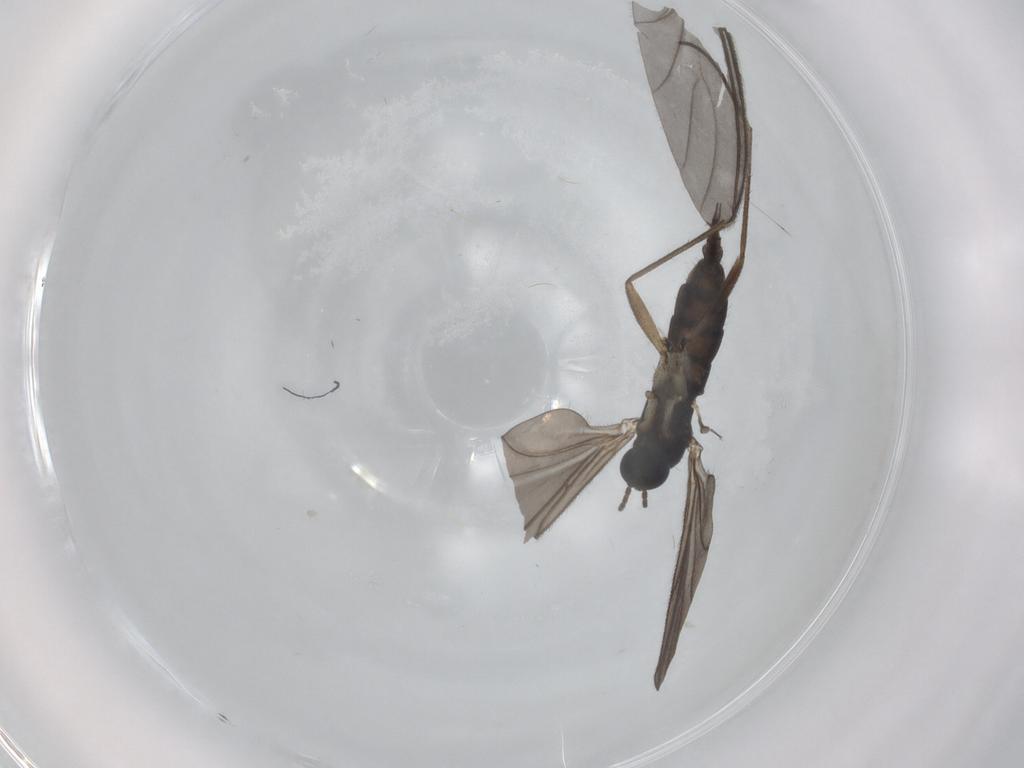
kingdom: Animalia
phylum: Arthropoda
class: Insecta
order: Diptera
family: Sciaridae
